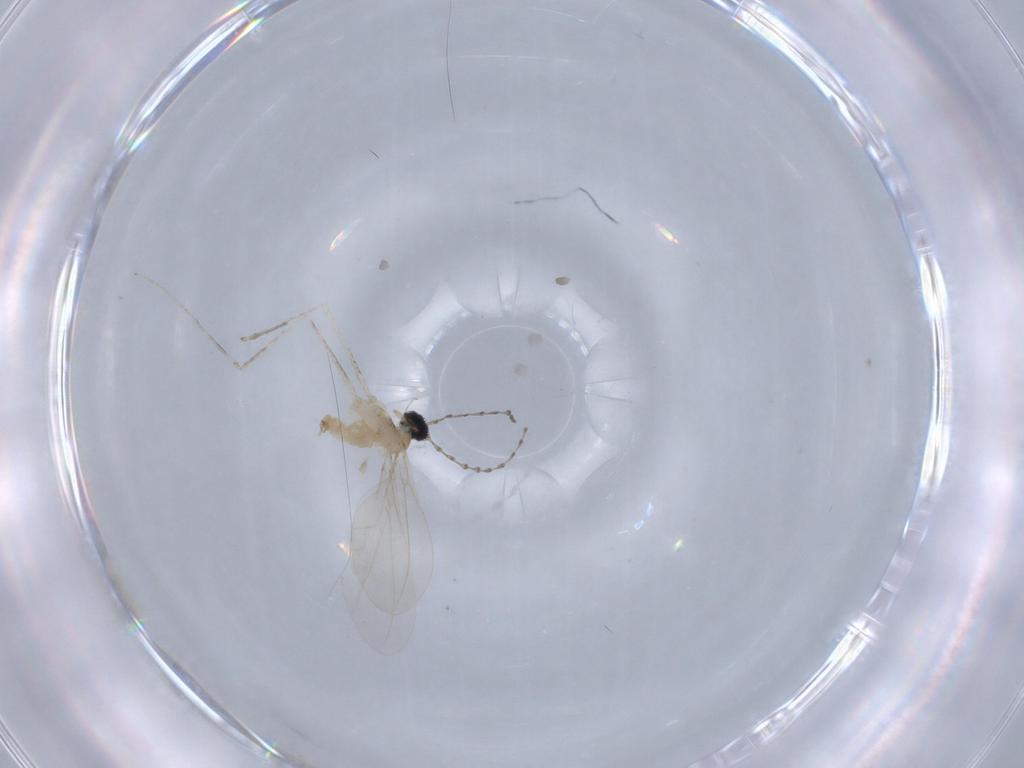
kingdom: Animalia
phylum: Arthropoda
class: Insecta
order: Diptera
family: Cecidomyiidae
